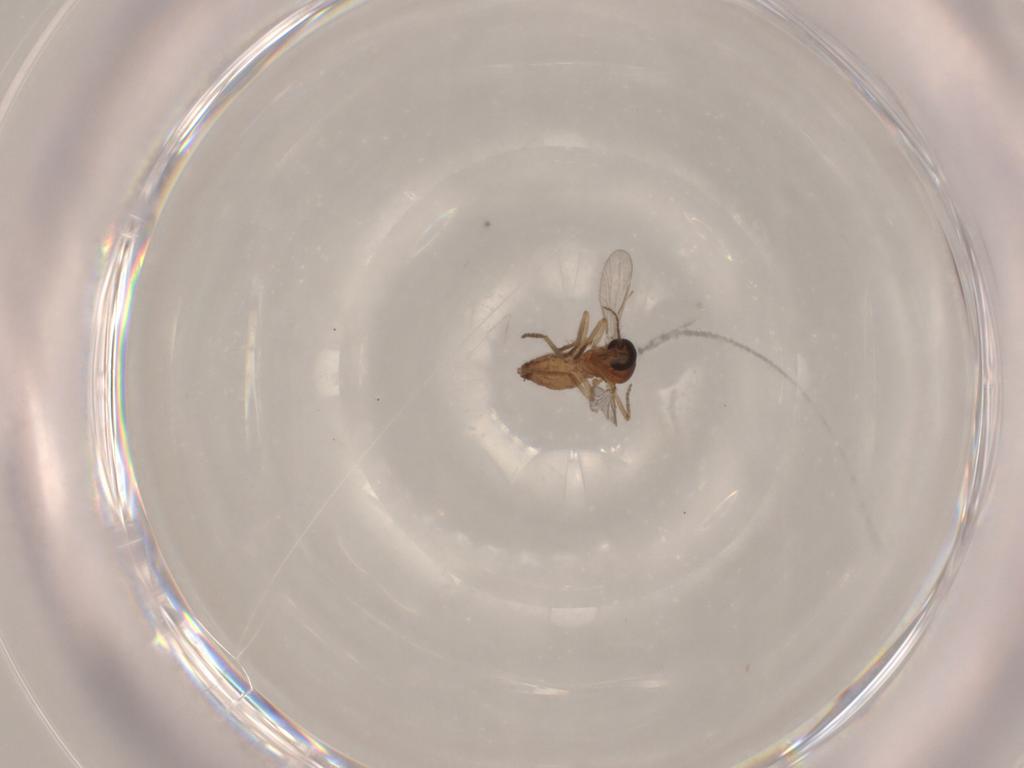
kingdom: Animalia
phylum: Arthropoda
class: Insecta
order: Diptera
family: Ceratopogonidae
